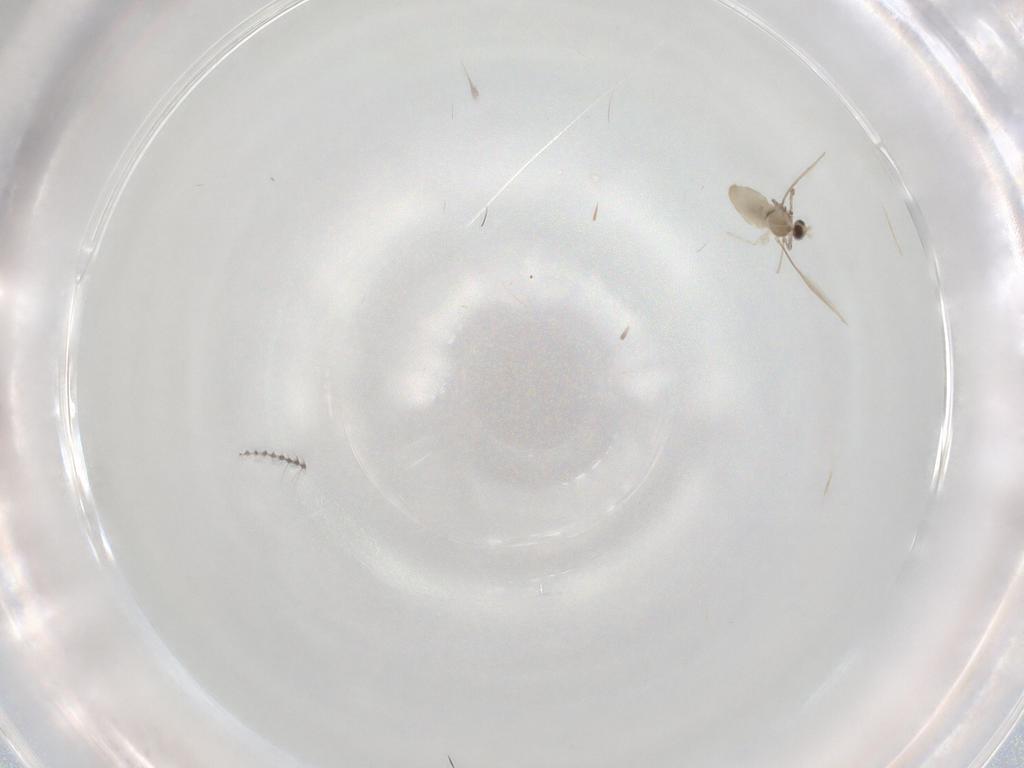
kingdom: Animalia
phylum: Arthropoda
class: Insecta
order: Diptera
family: Cecidomyiidae
